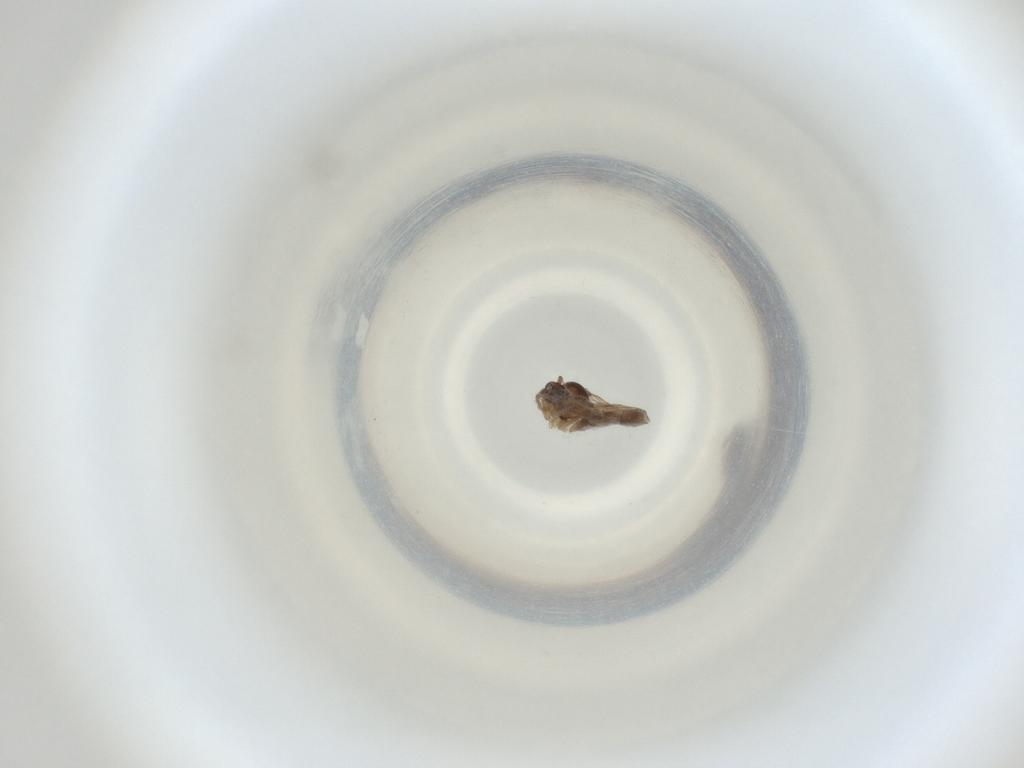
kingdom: Animalia
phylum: Arthropoda
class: Insecta
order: Diptera
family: Cecidomyiidae
